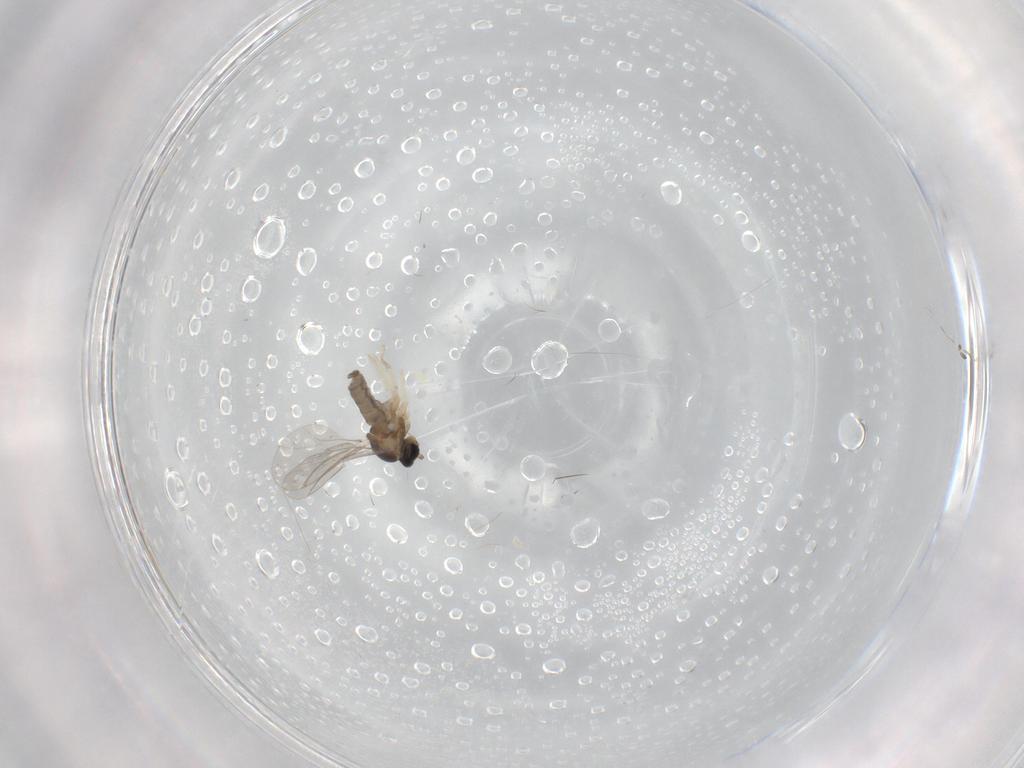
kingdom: Animalia
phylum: Arthropoda
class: Insecta
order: Diptera
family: Cecidomyiidae
